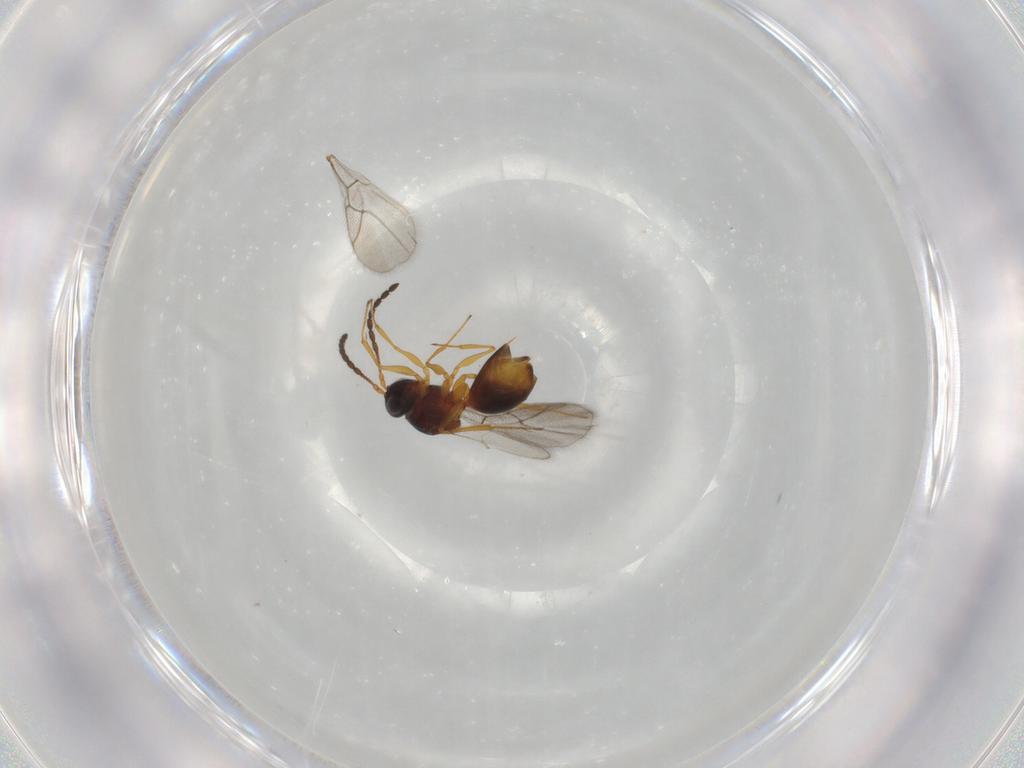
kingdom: Animalia
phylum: Arthropoda
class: Insecta
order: Hymenoptera
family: Figitidae
